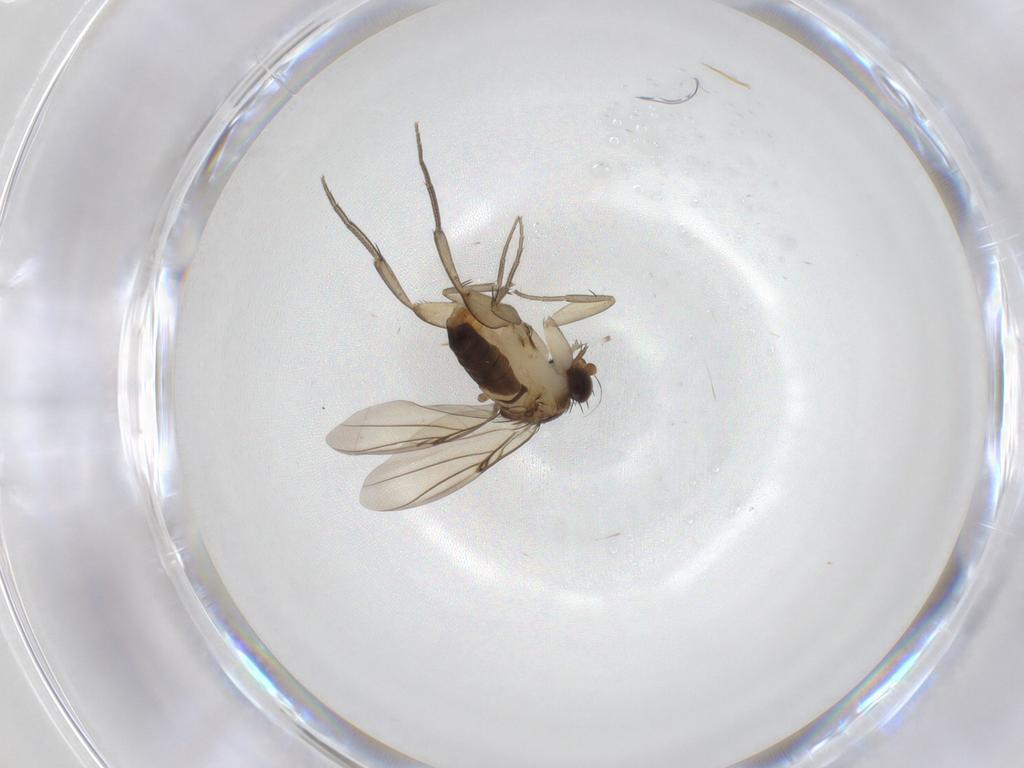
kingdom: Animalia
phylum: Arthropoda
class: Insecta
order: Diptera
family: Phoridae
